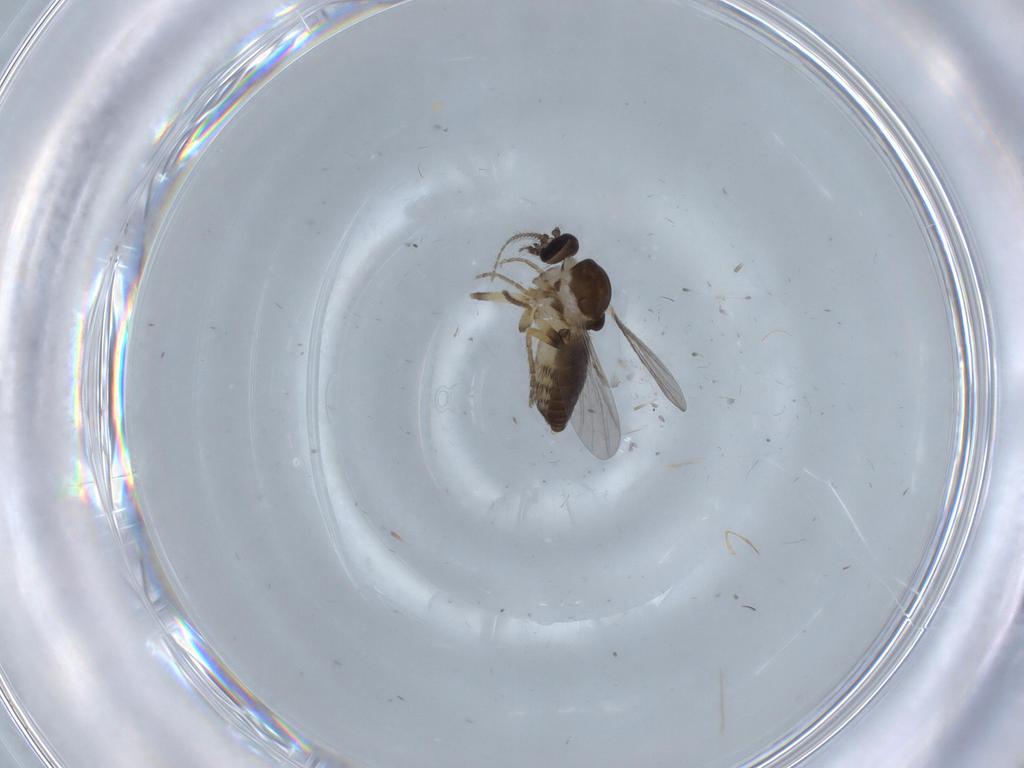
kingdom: Animalia
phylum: Arthropoda
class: Insecta
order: Diptera
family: Ceratopogonidae
